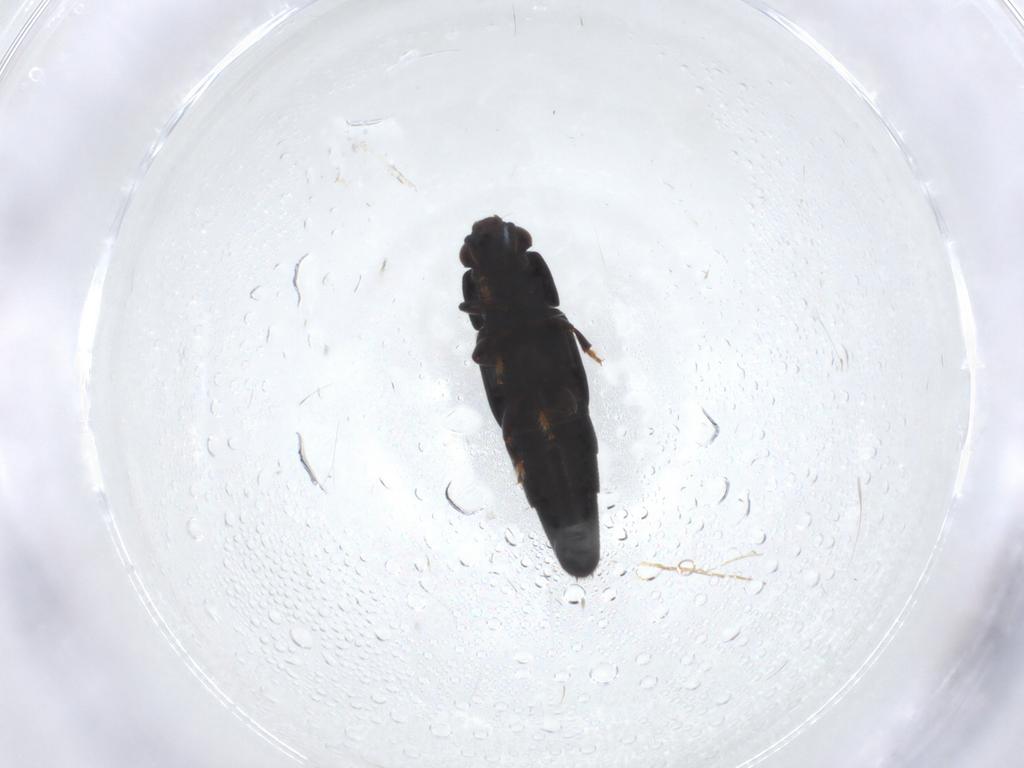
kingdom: Animalia
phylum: Arthropoda
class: Insecta
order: Coleoptera
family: Nitidulidae
